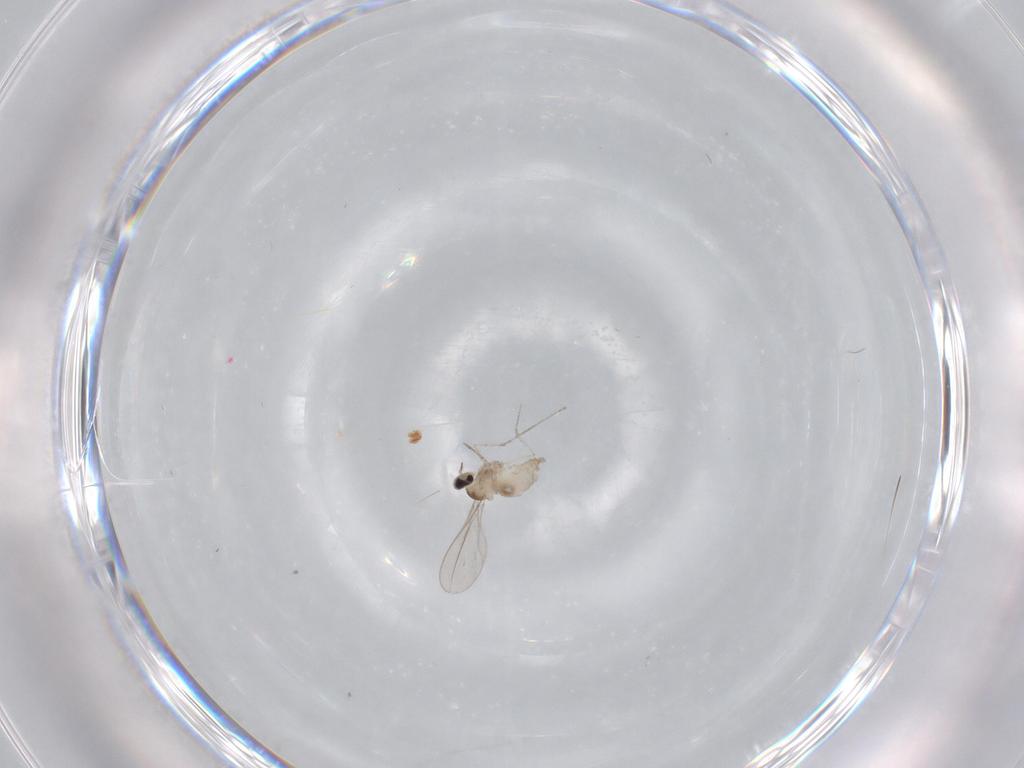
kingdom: Animalia
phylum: Arthropoda
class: Insecta
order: Diptera
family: Cecidomyiidae
